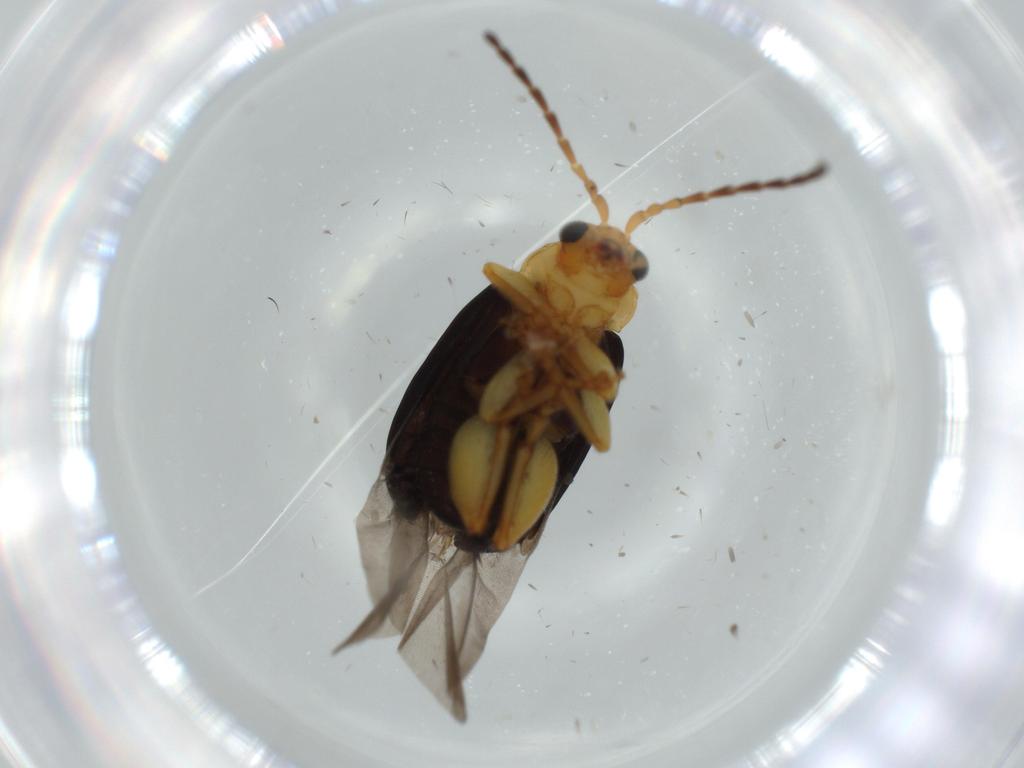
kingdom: Animalia
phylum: Arthropoda
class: Insecta
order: Coleoptera
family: Chrysomelidae
